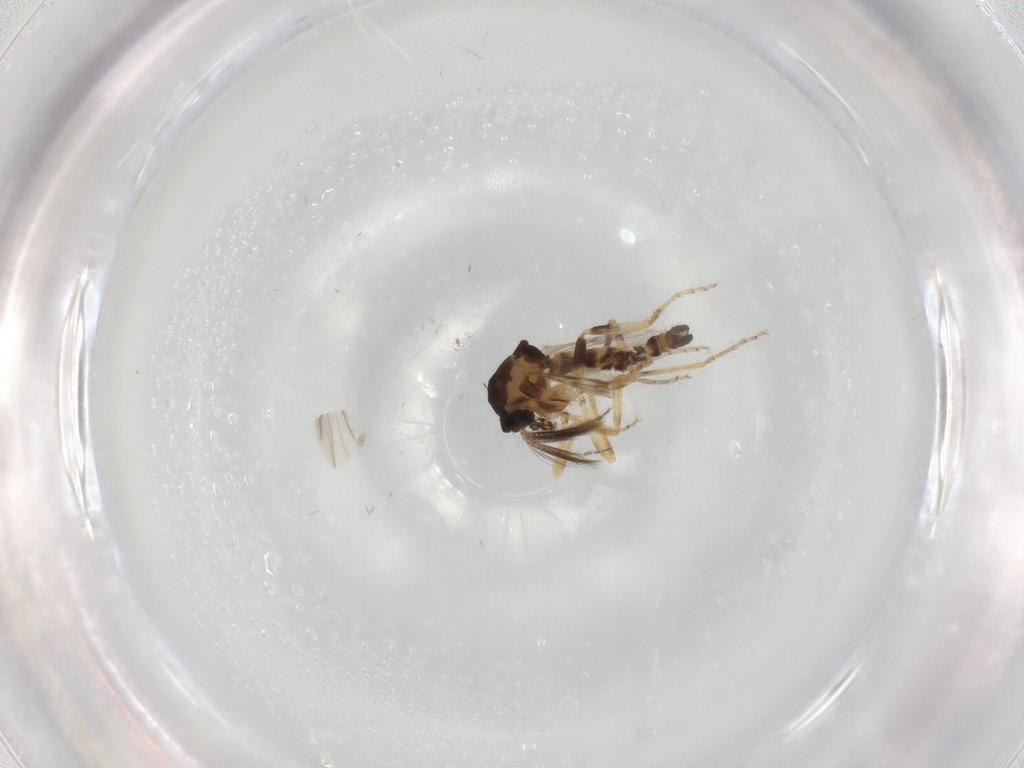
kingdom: Animalia
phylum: Arthropoda
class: Insecta
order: Diptera
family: Ceratopogonidae
